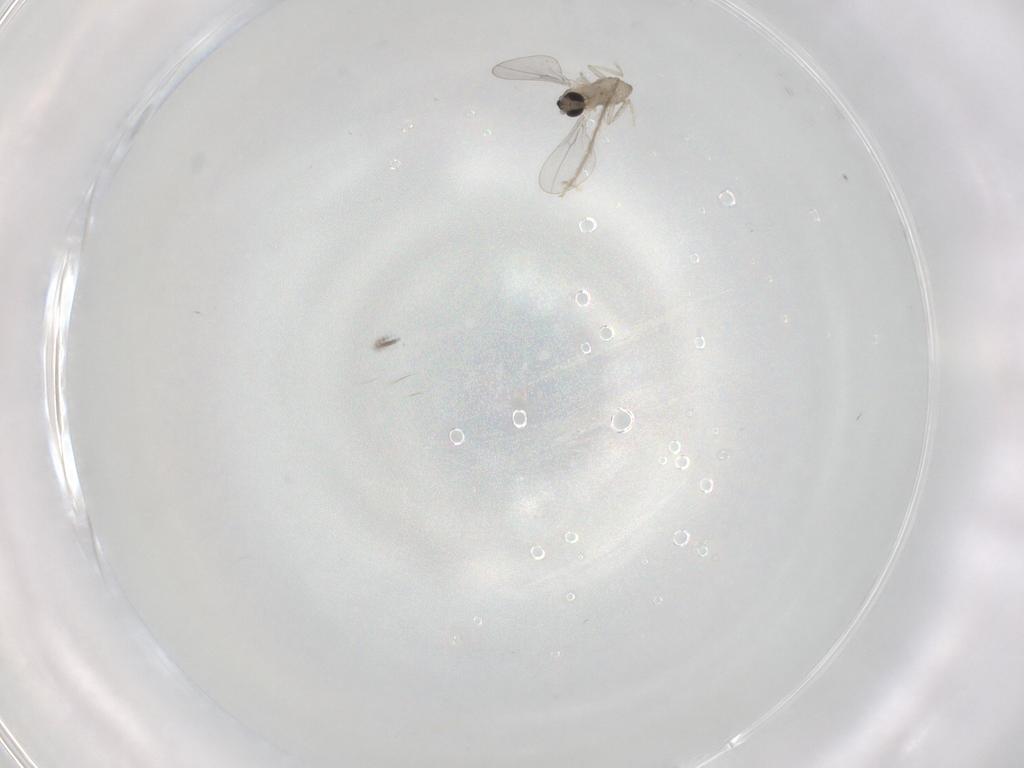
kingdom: Animalia
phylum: Arthropoda
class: Insecta
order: Diptera
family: Cecidomyiidae
